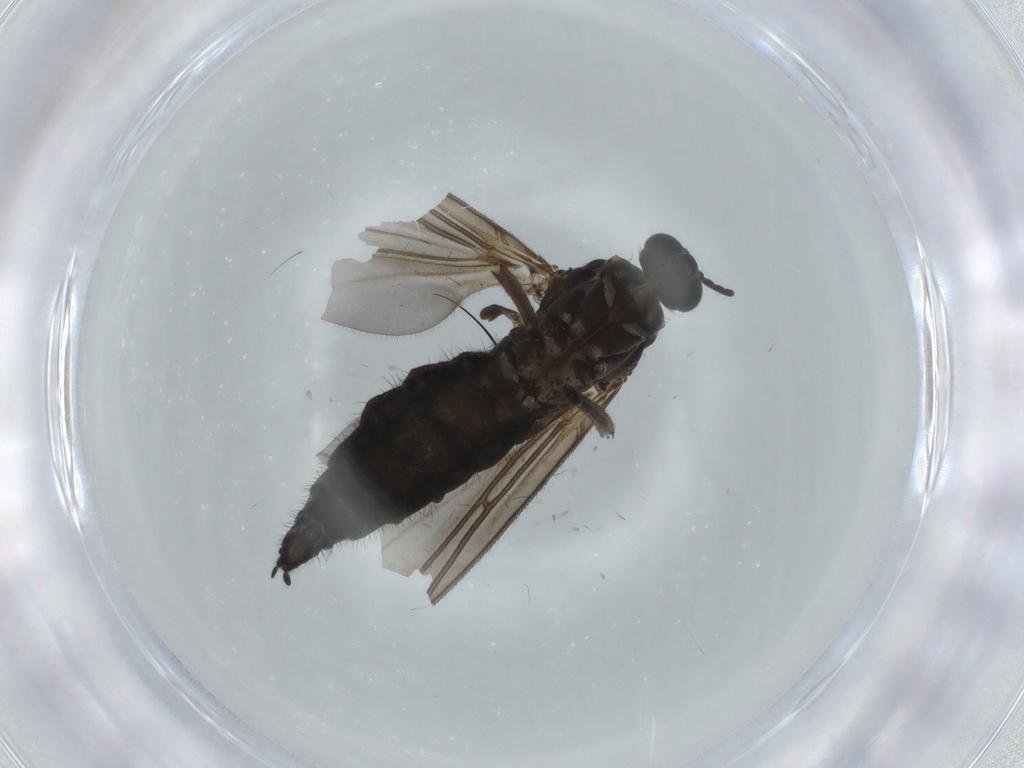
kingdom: Animalia
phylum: Arthropoda
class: Insecta
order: Diptera
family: Sciaridae
